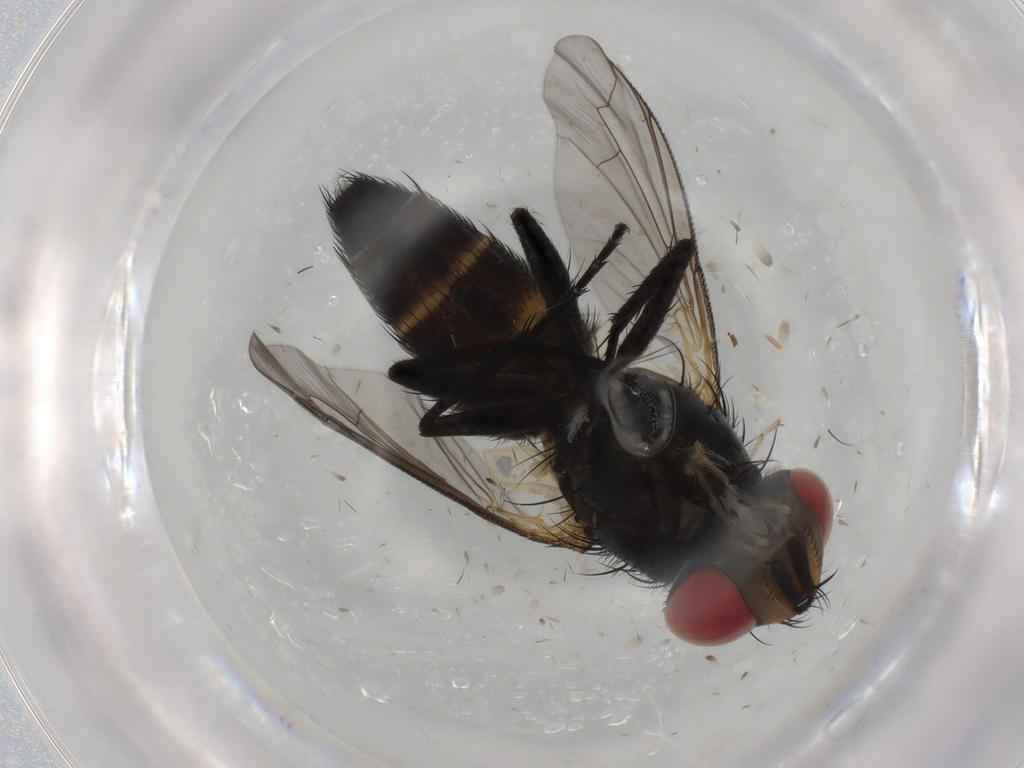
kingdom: Animalia
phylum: Arthropoda
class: Insecta
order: Diptera
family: Anthomyiidae
